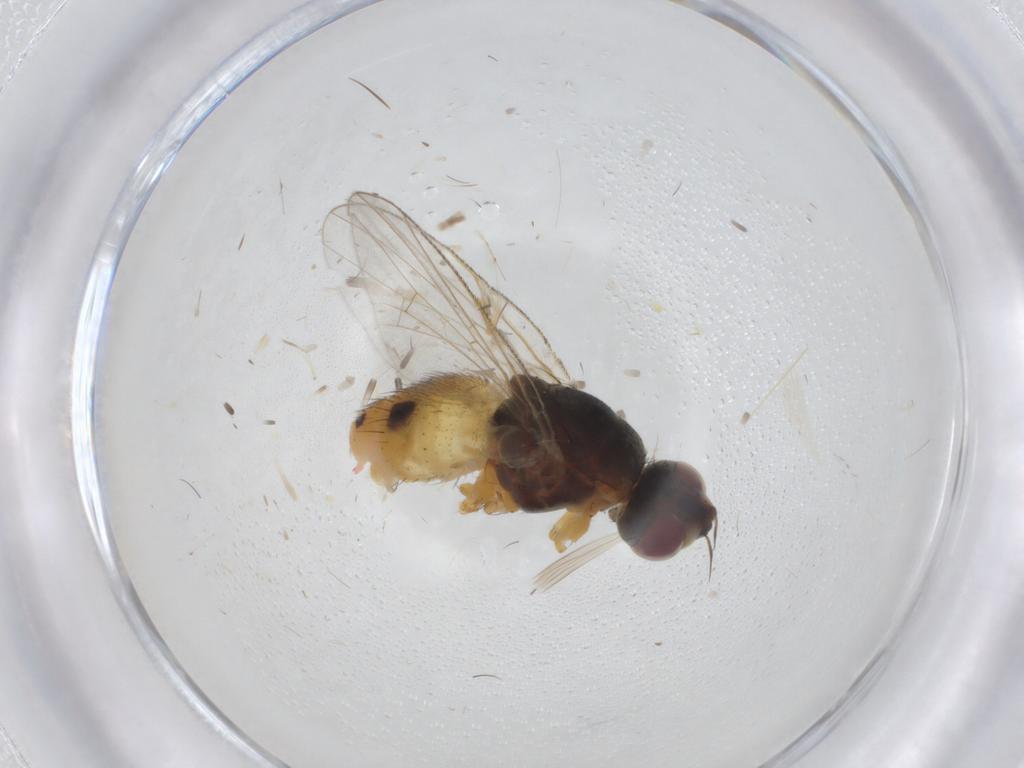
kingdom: Animalia
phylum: Arthropoda
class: Insecta
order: Diptera
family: Muscidae
